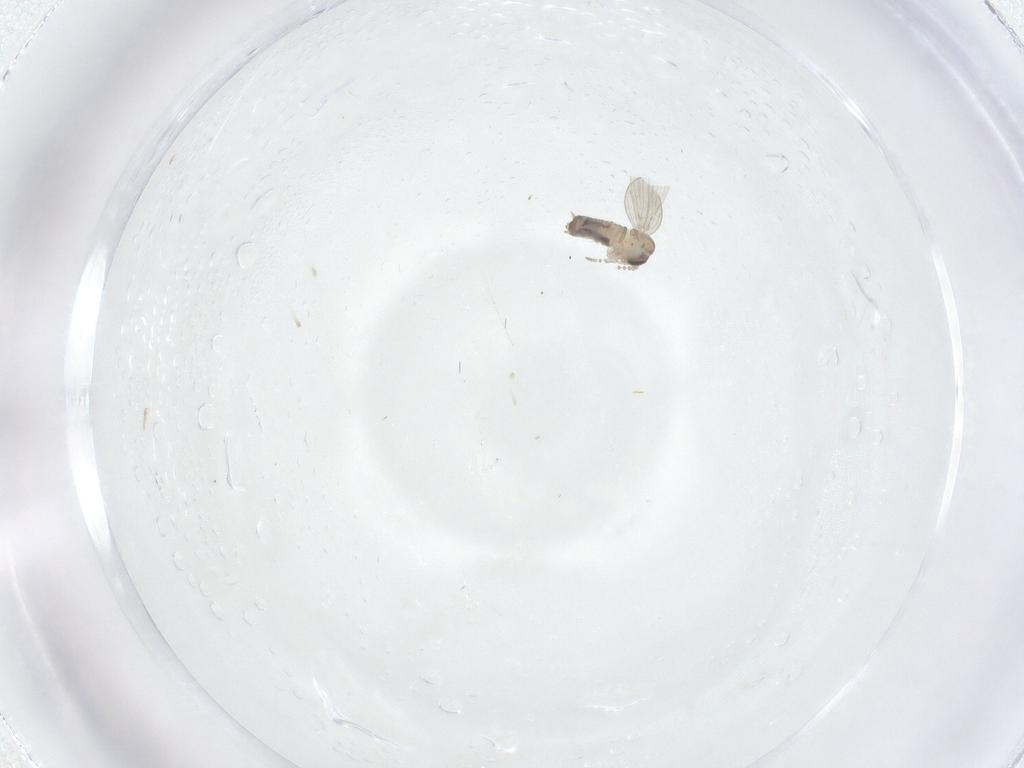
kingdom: Animalia
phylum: Arthropoda
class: Insecta
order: Diptera
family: Psychodidae
